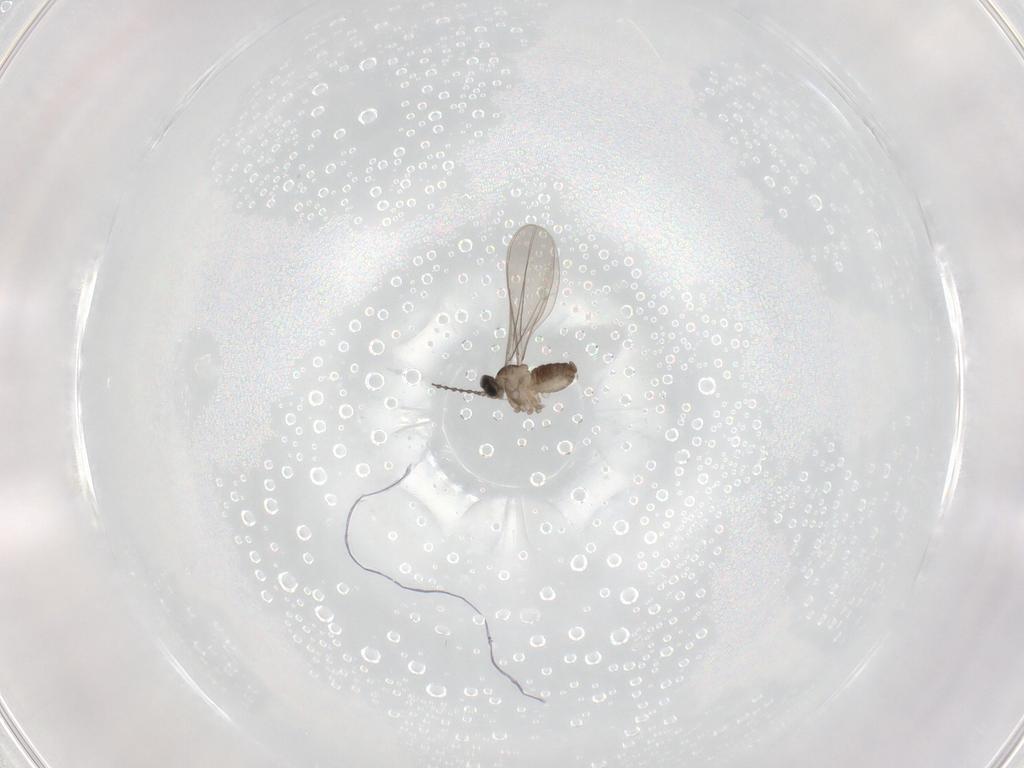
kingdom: Animalia
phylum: Arthropoda
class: Insecta
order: Diptera
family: Cecidomyiidae
